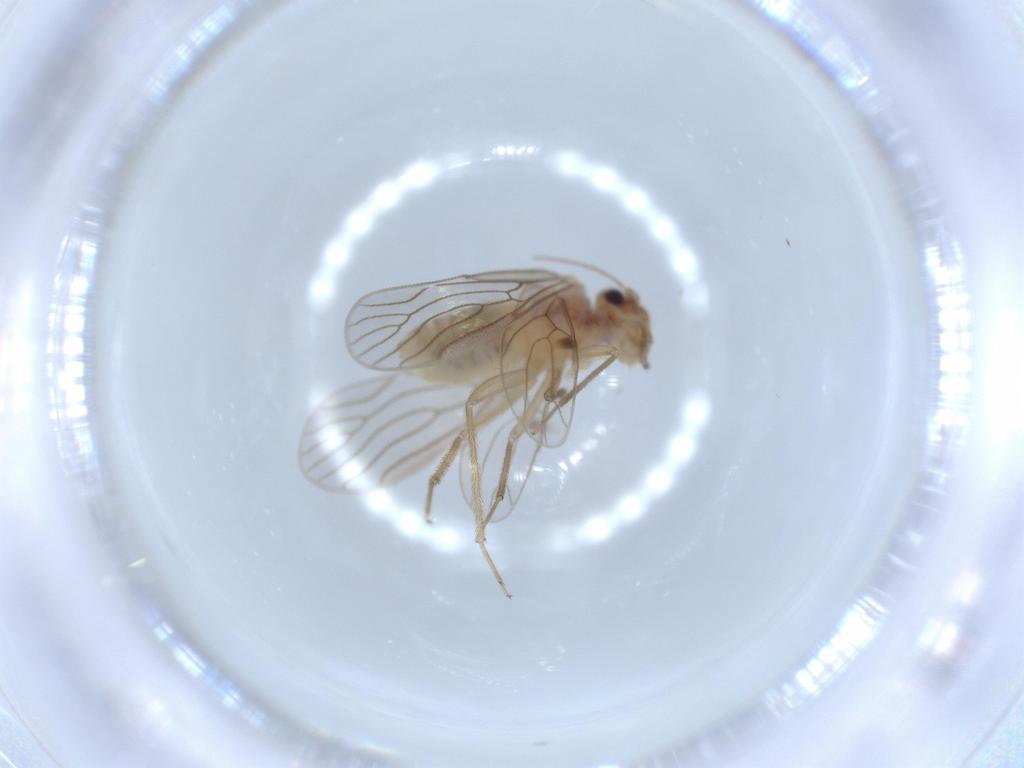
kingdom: Animalia
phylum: Arthropoda
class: Insecta
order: Psocodea
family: Cladiopsocidae
